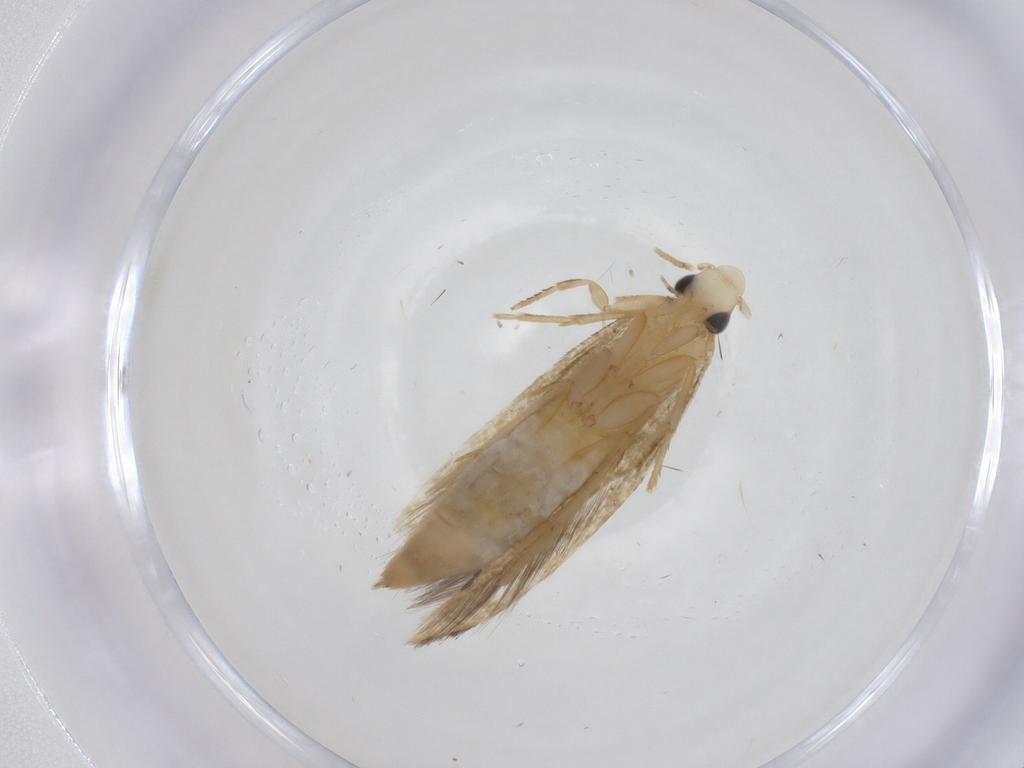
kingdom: Animalia
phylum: Arthropoda
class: Insecta
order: Lepidoptera
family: Tineidae
